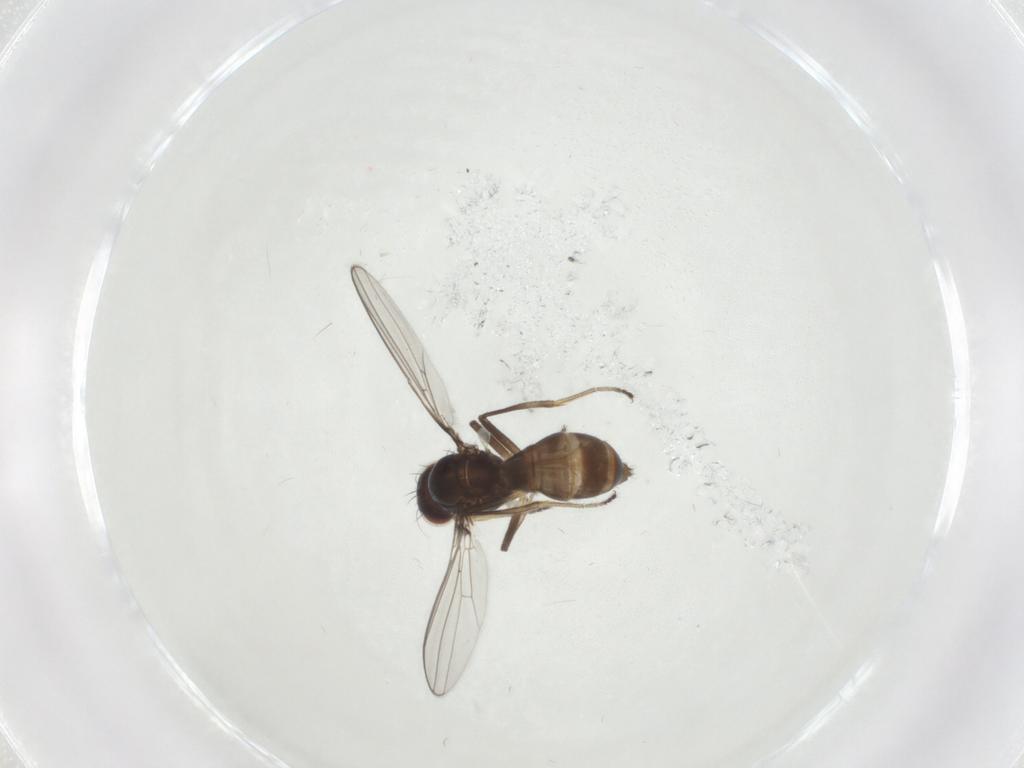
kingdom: Animalia
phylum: Arthropoda
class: Insecta
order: Diptera
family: Sepsidae
